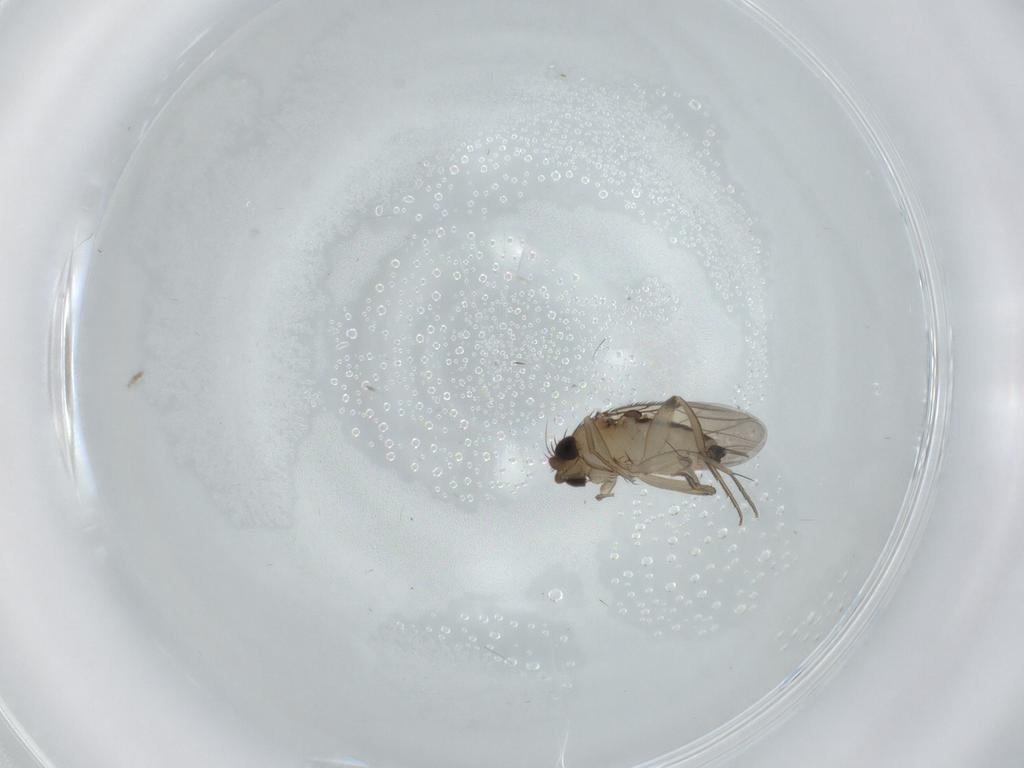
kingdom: Animalia
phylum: Arthropoda
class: Insecta
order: Diptera
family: Phoridae
